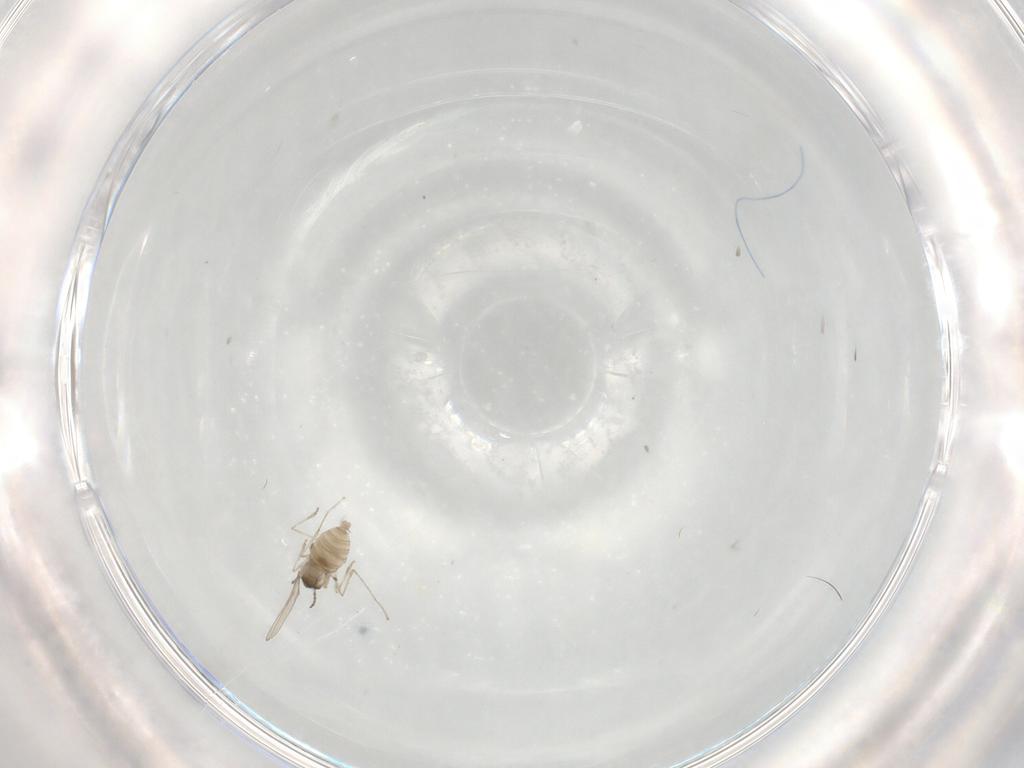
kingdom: Animalia
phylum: Arthropoda
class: Insecta
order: Diptera
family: Cecidomyiidae
